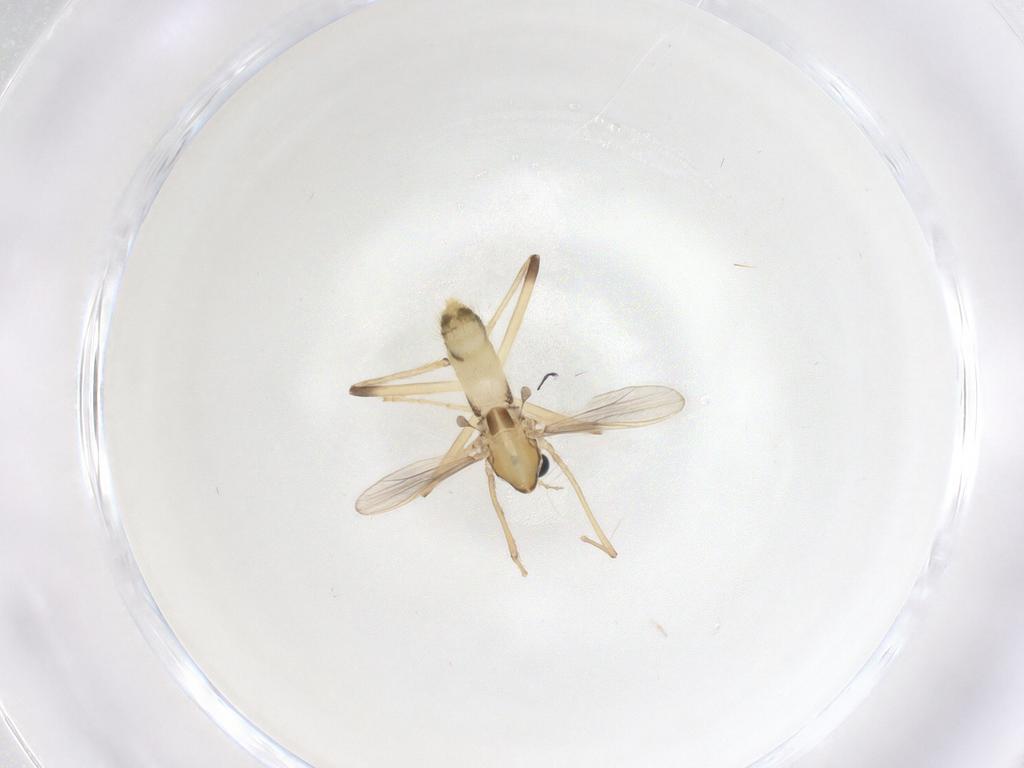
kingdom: Animalia
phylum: Arthropoda
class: Insecta
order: Diptera
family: Chironomidae
